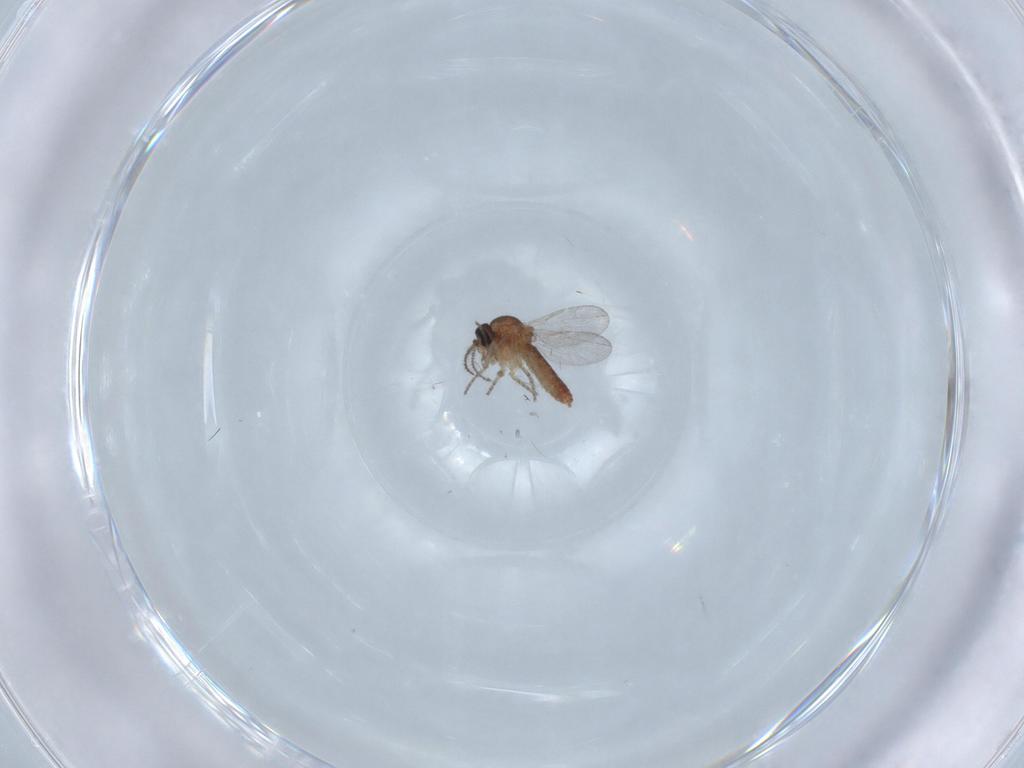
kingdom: Animalia
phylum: Arthropoda
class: Insecta
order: Diptera
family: Ceratopogonidae
